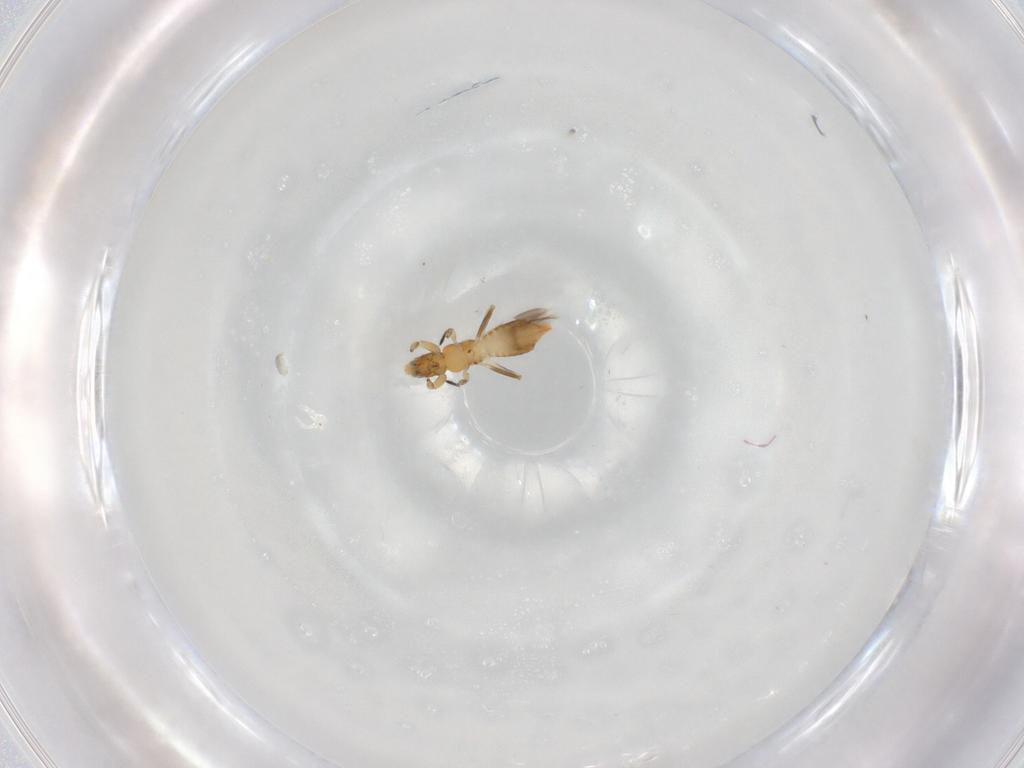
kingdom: Animalia
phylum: Arthropoda
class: Insecta
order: Thysanoptera
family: Aeolothripidae
